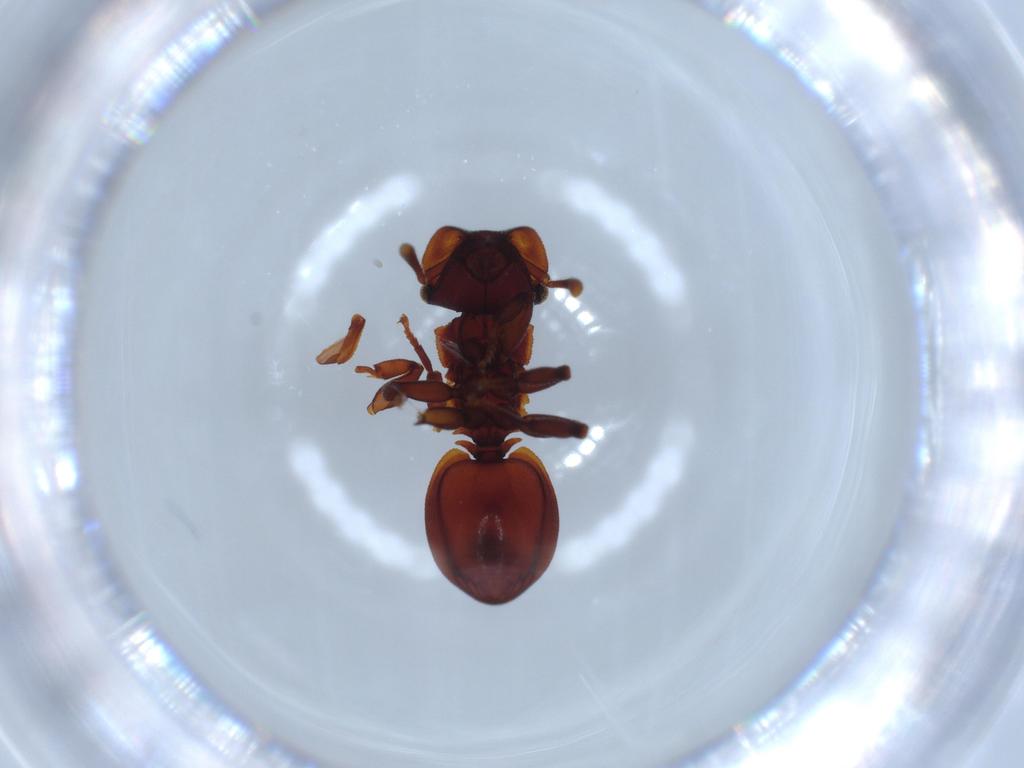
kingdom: Animalia
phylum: Arthropoda
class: Insecta
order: Hymenoptera
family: Formicidae
